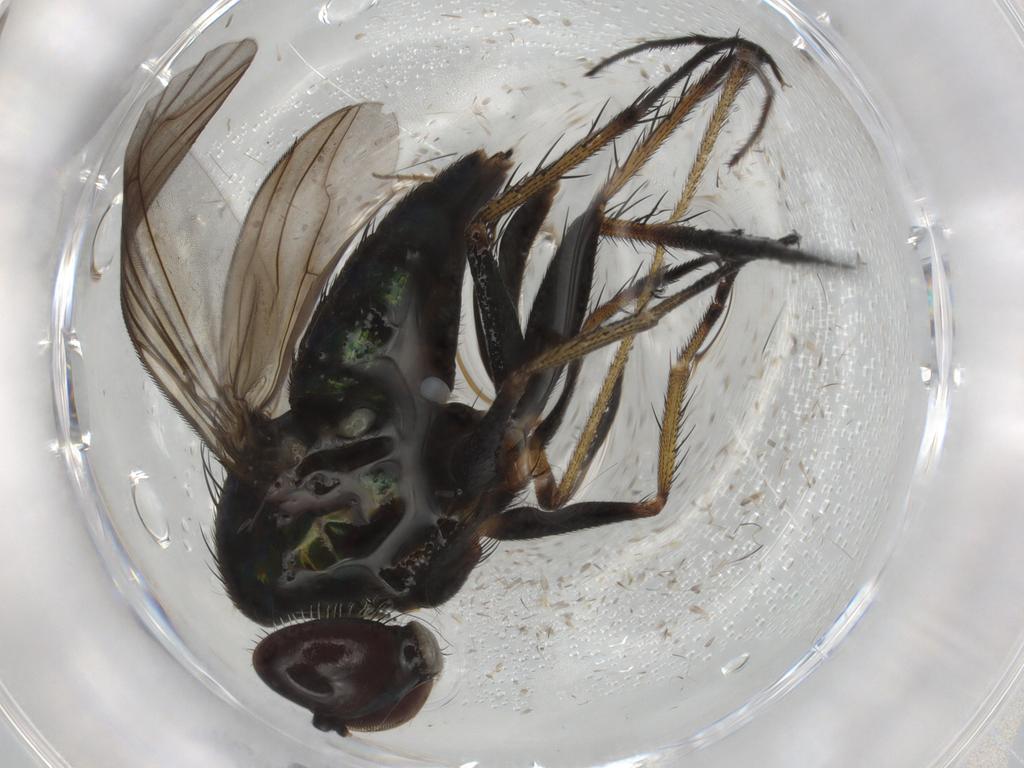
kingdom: Animalia
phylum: Arthropoda
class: Insecta
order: Diptera
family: Dolichopodidae
